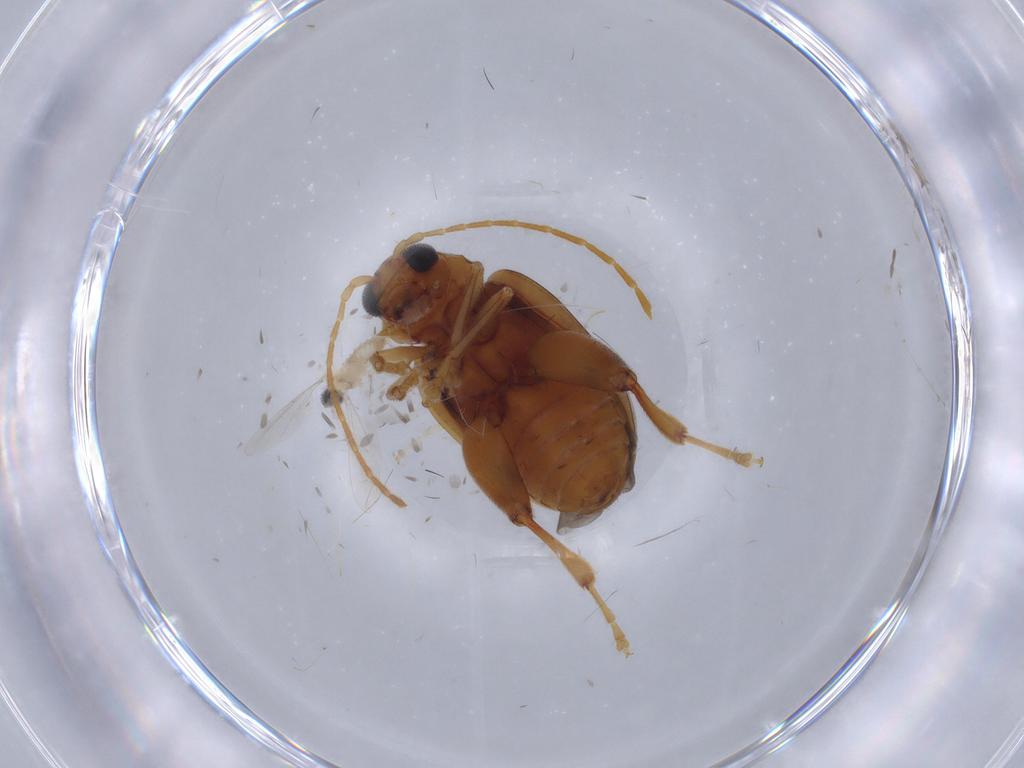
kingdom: Animalia
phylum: Arthropoda
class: Insecta
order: Coleoptera
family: Chrysomelidae
